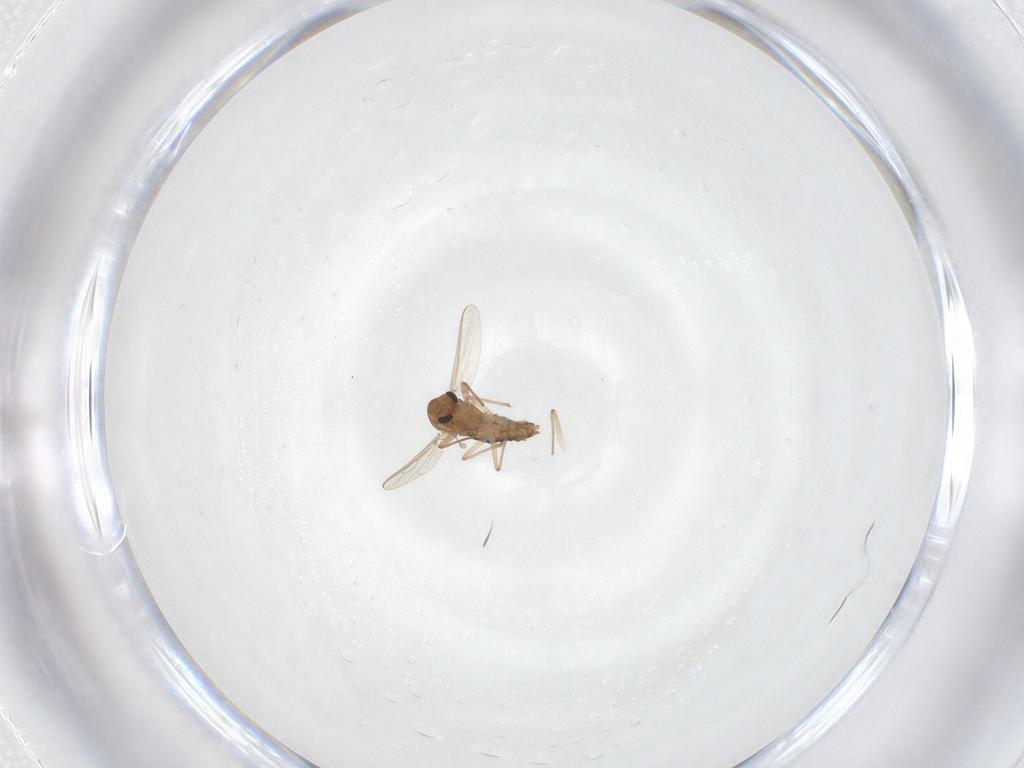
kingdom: Animalia
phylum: Arthropoda
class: Insecta
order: Diptera
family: Chironomidae
